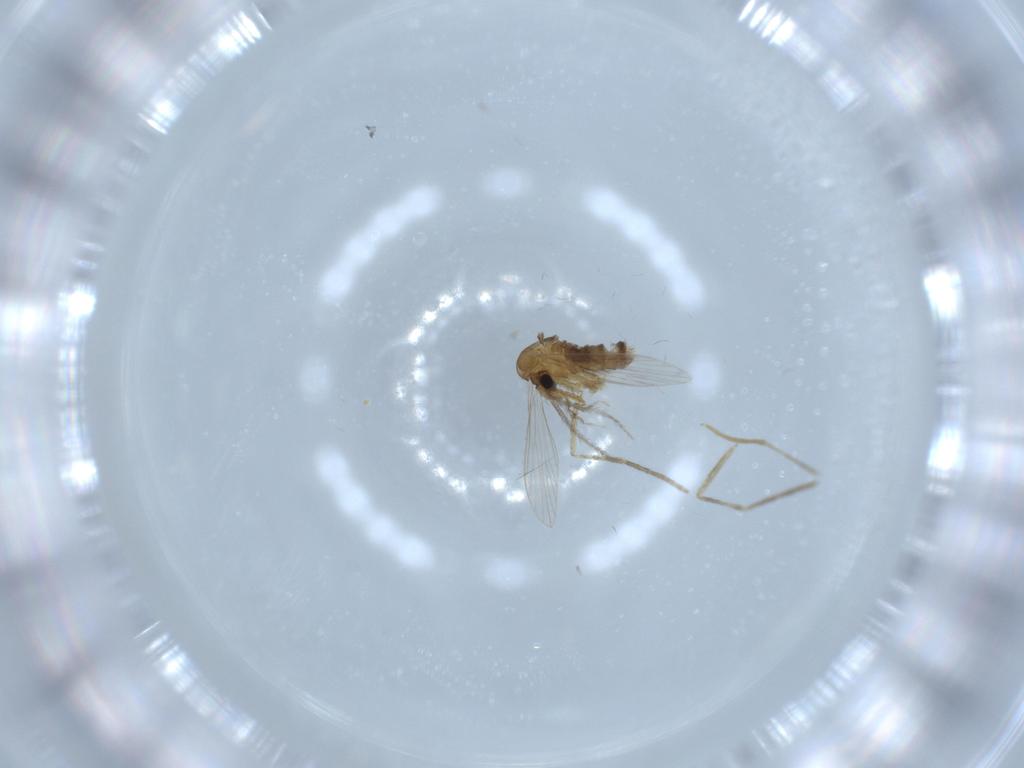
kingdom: Animalia
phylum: Arthropoda
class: Insecta
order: Diptera
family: Psychodidae
